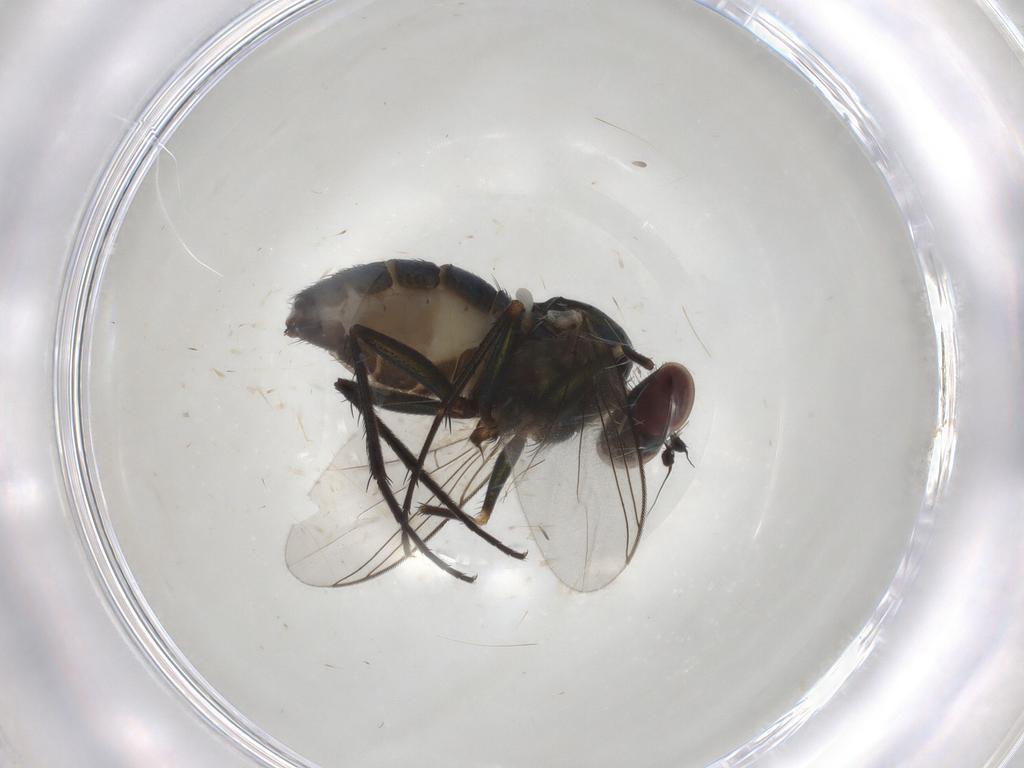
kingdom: Animalia
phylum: Arthropoda
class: Insecta
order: Diptera
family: Dolichopodidae
